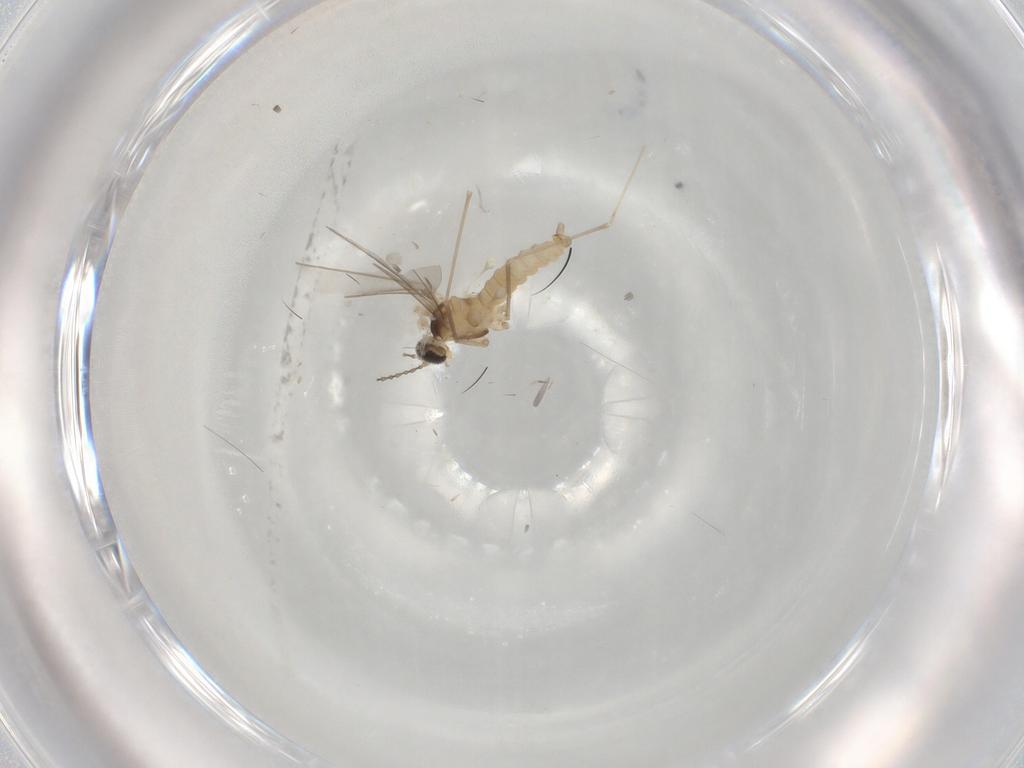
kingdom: Animalia
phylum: Arthropoda
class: Insecta
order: Diptera
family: Cecidomyiidae
